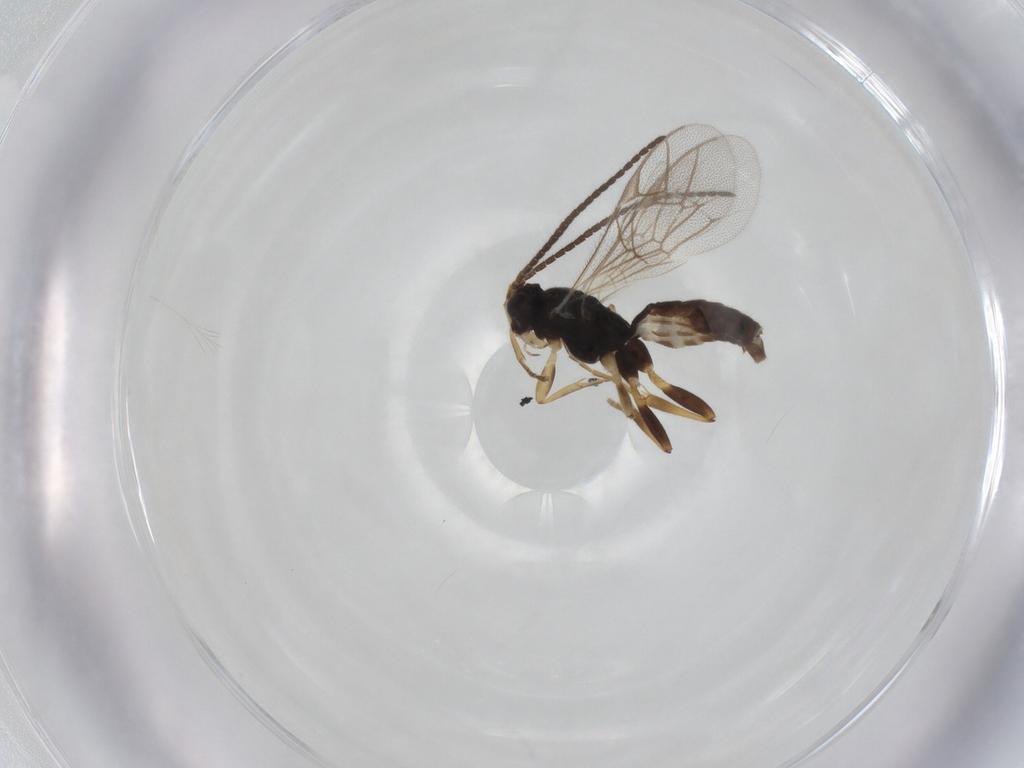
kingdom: Animalia
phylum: Arthropoda
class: Insecta
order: Hymenoptera
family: Ichneumonidae
